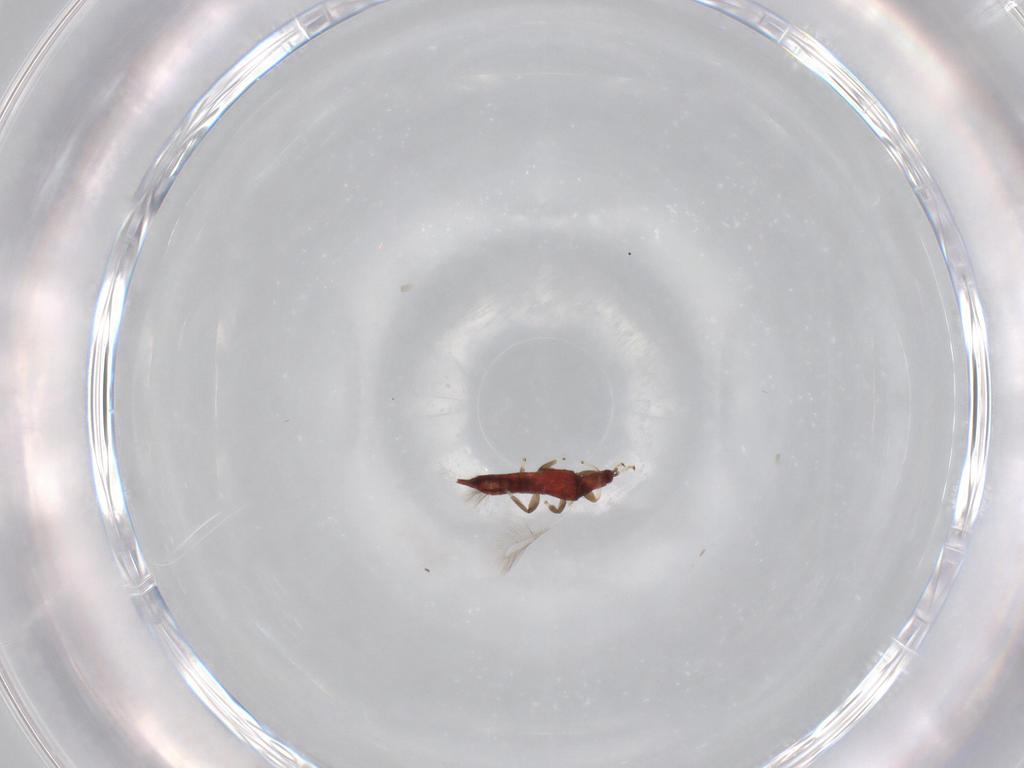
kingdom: Animalia
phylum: Arthropoda
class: Insecta
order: Thysanoptera
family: Phlaeothripidae
